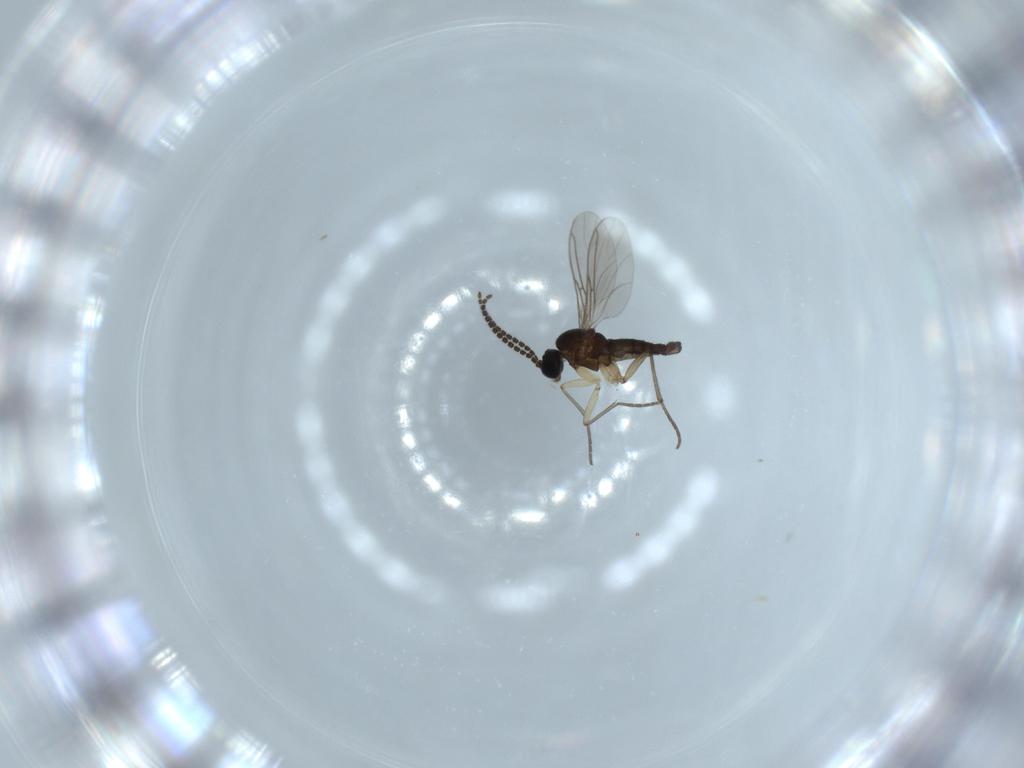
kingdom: Animalia
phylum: Arthropoda
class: Insecta
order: Diptera
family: Sciaridae
